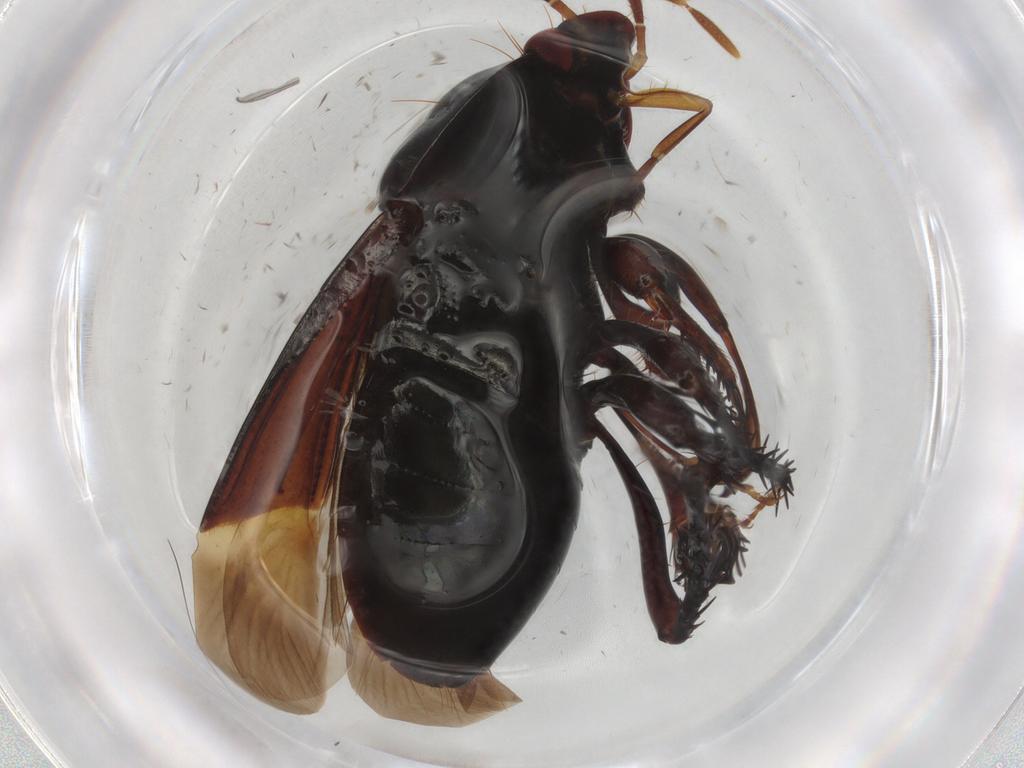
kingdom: Animalia
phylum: Arthropoda
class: Insecta
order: Hemiptera
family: Cydnidae
